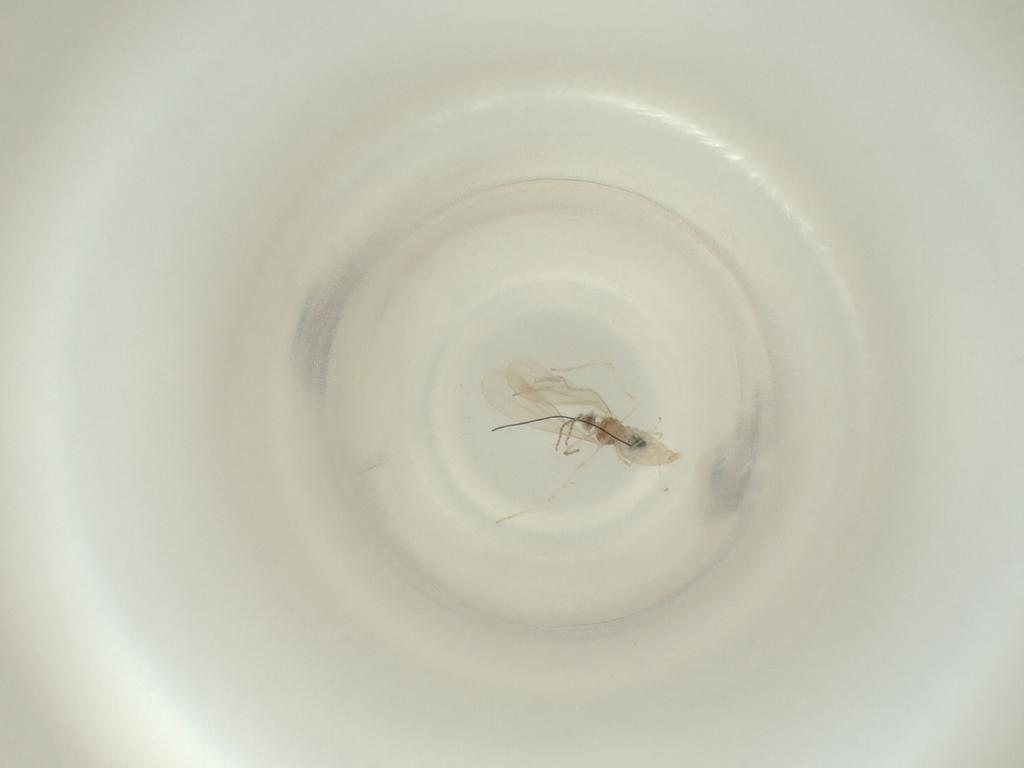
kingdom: Animalia
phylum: Arthropoda
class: Insecta
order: Diptera
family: Cecidomyiidae
